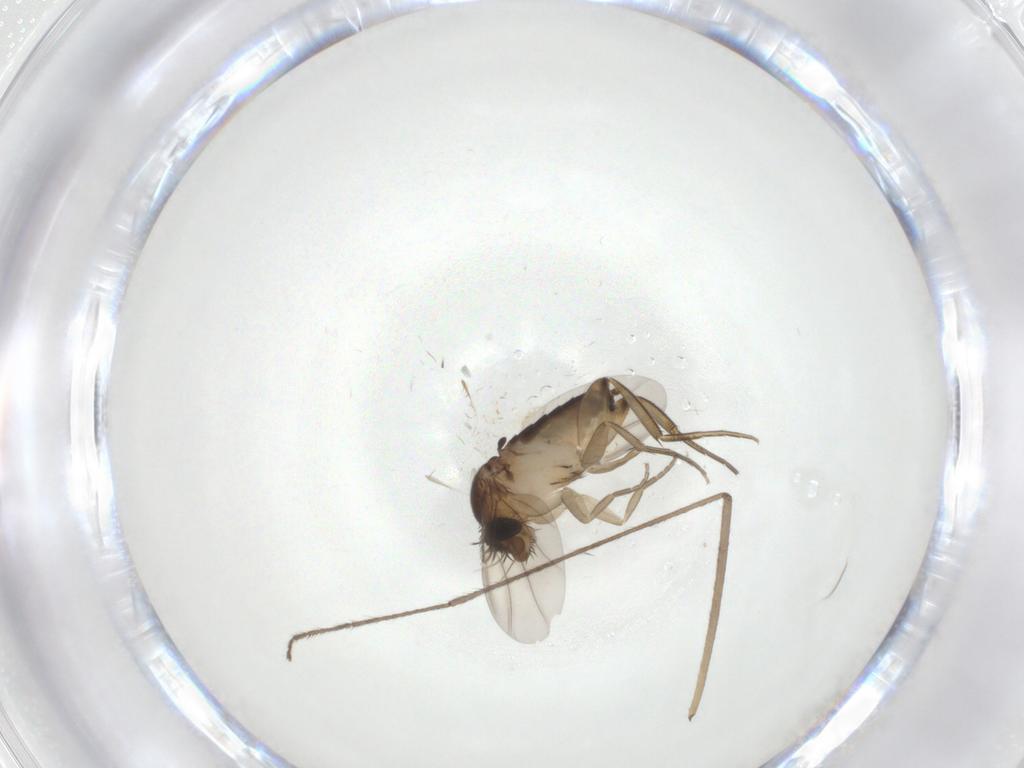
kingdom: Animalia
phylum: Arthropoda
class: Insecta
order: Diptera
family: Phoridae
